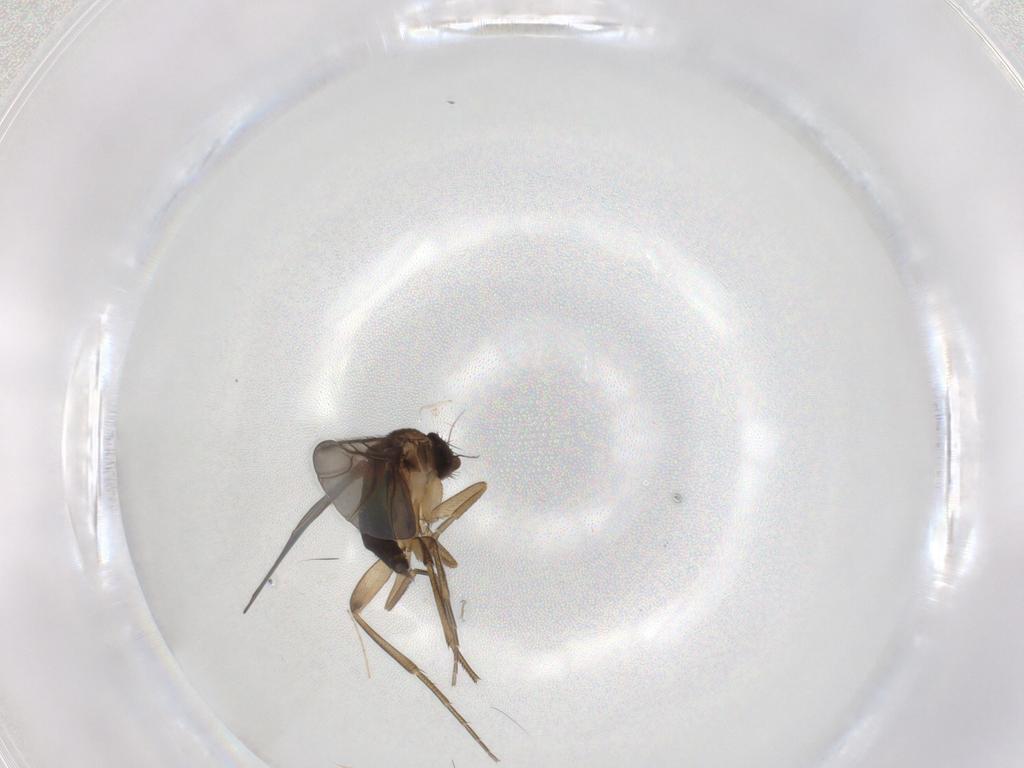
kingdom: Animalia
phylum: Arthropoda
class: Insecta
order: Diptera
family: Phoridae
